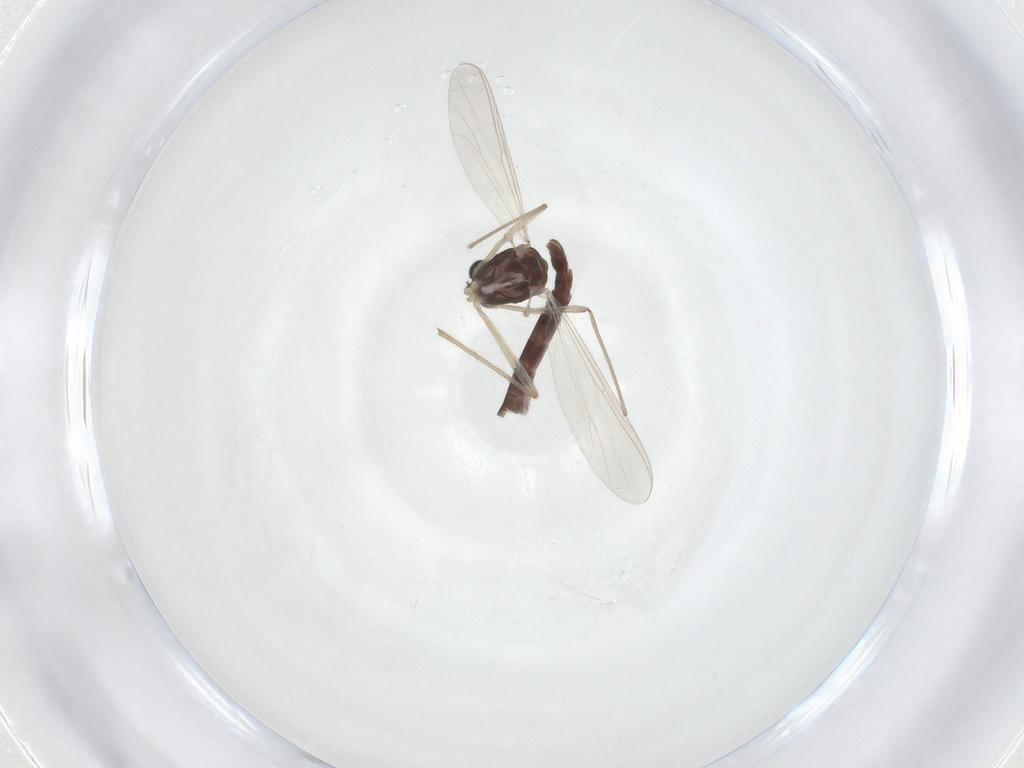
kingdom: Animalia
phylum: Arthropoda
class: Insecta
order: Diptera
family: Chironomidae
